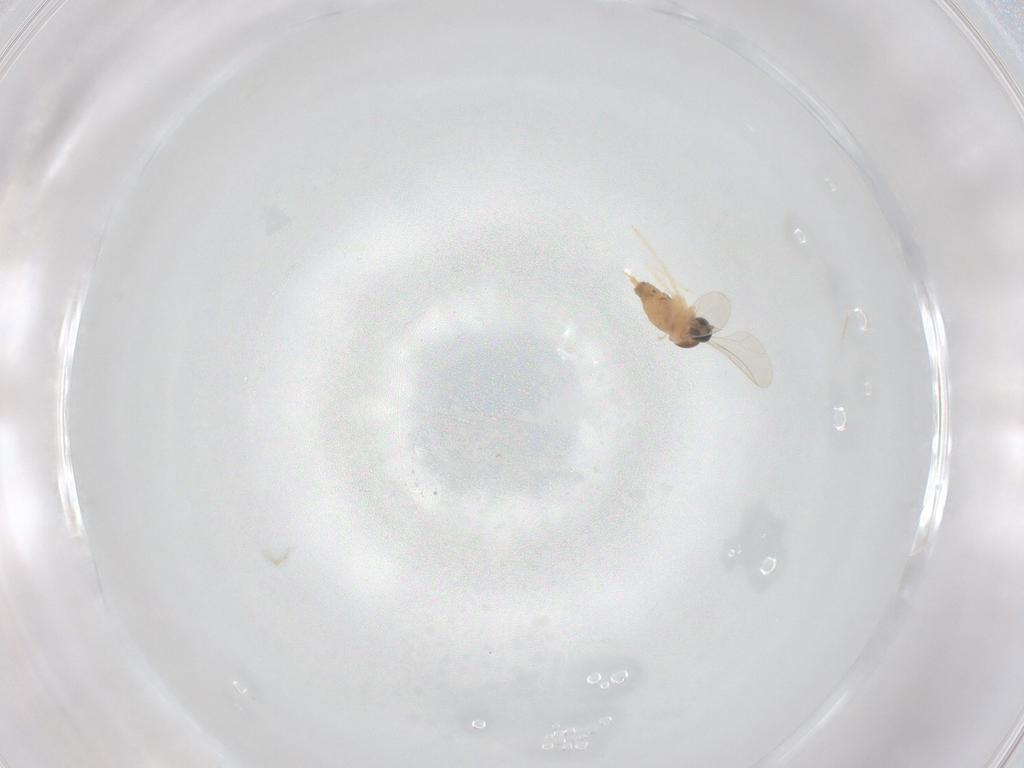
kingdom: Animalia
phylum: Arthropoda
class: Insecta
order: Diptera
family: Cecidomyiidae
